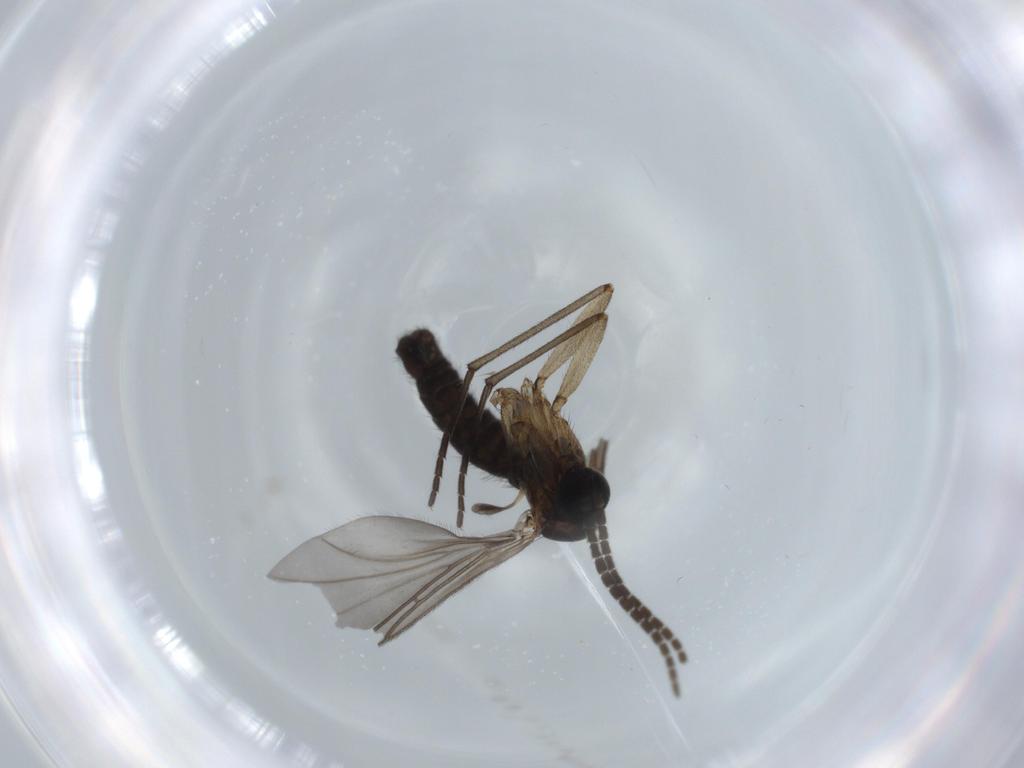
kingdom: Animalia
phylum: Arthropoda
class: Insecta
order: Diptera
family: Sciaridae
